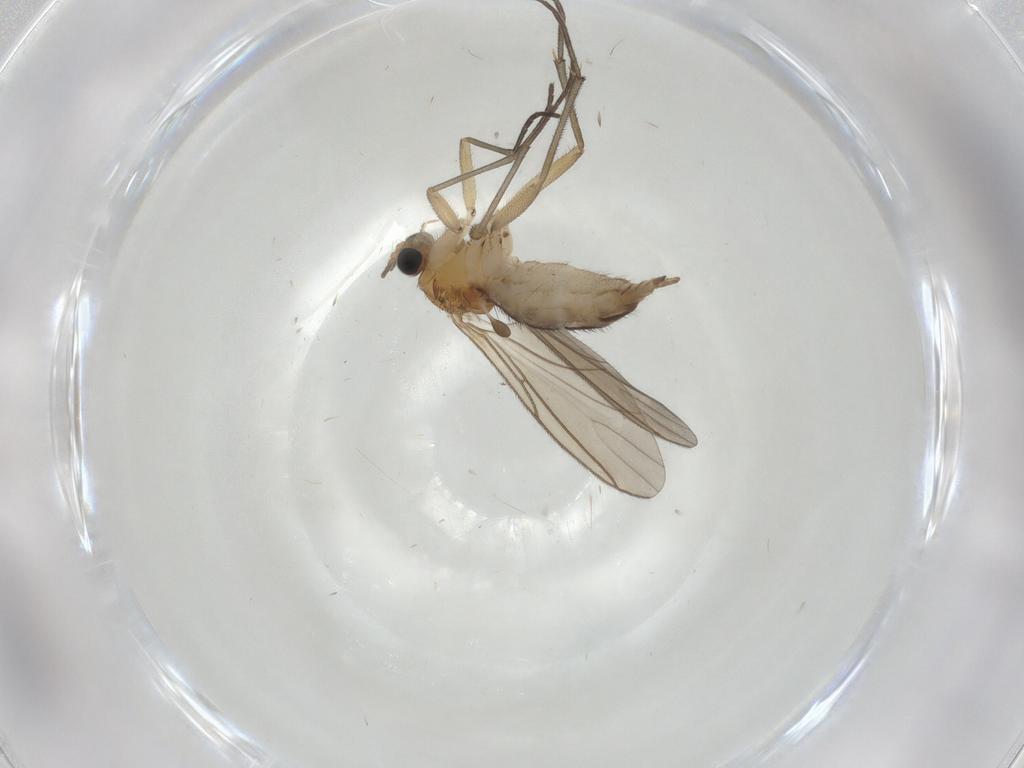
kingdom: Animalia
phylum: Arthropoda
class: Insecta
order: Diptera
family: Sciaridae
